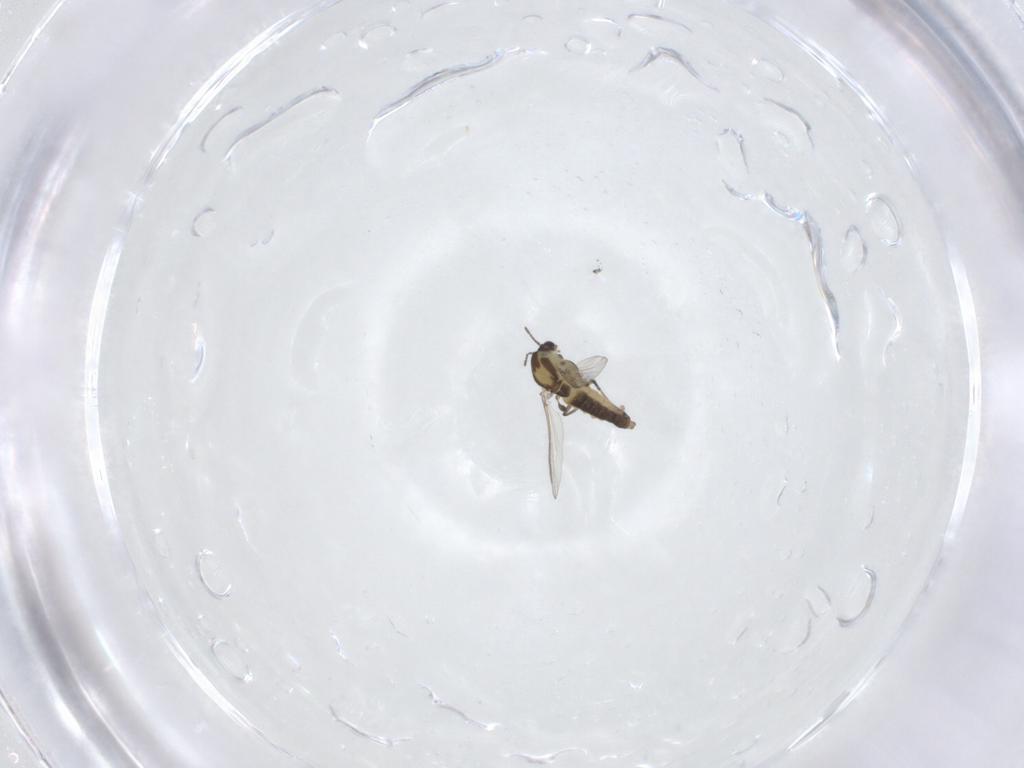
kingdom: Animalia
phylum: Arthropoda
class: Insecta
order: Diptera
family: Chironomidae
